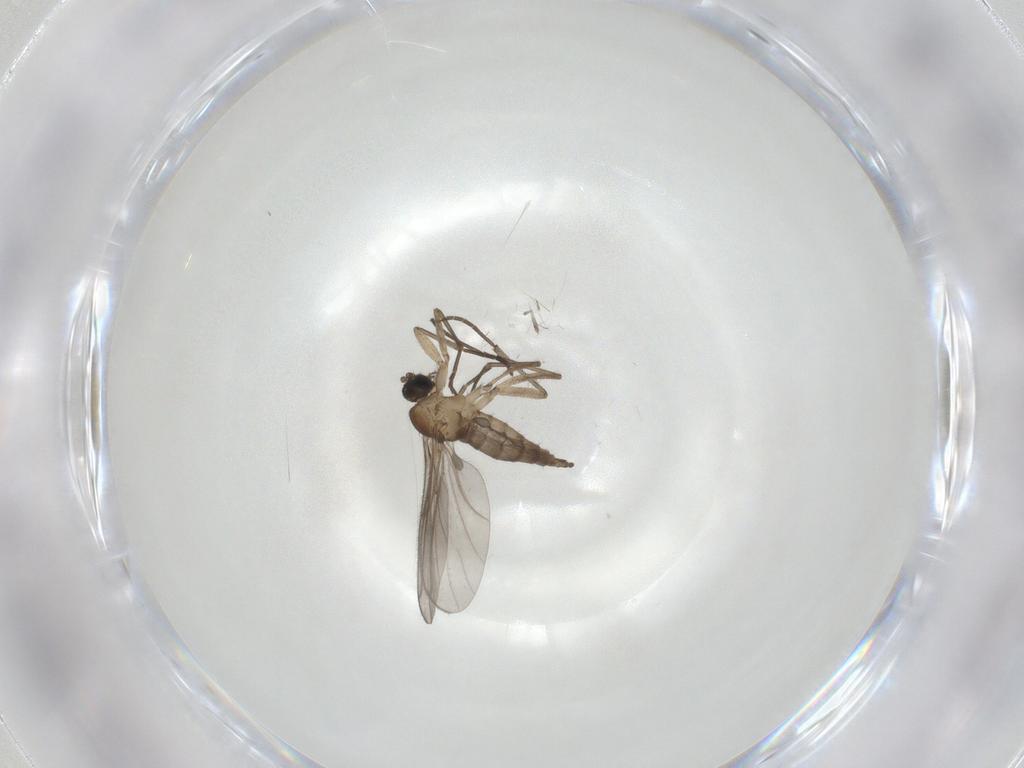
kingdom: Animalia
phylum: Arthropoda
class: Insecta
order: Diptera
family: Sciaridae
